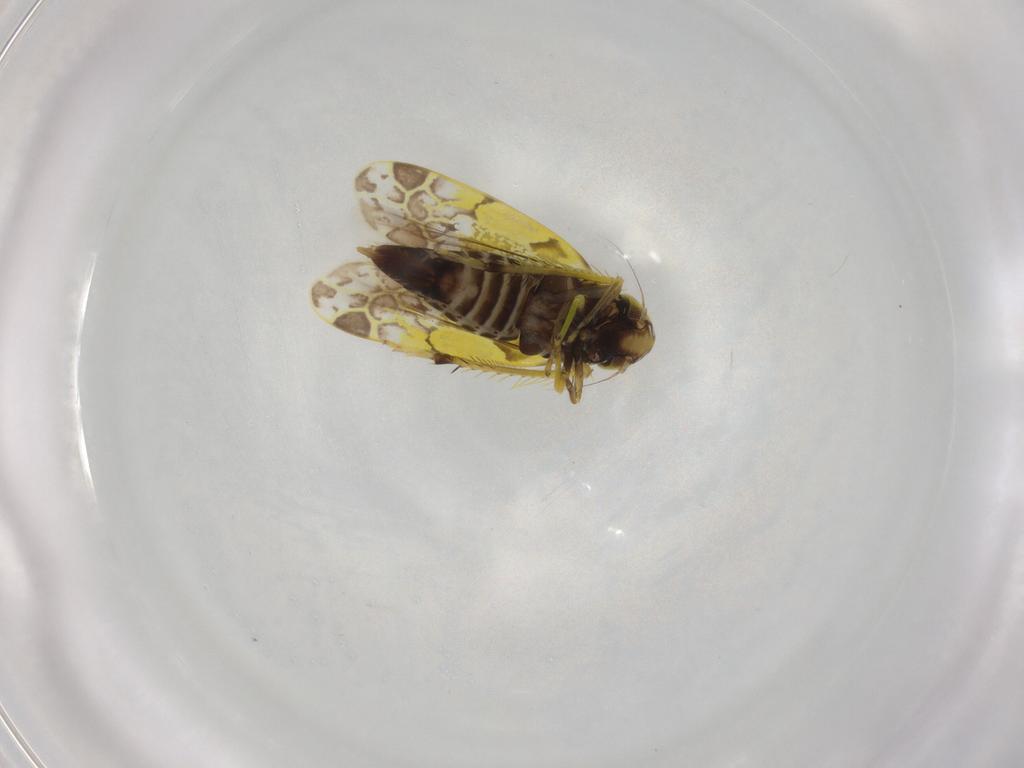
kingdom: Animalia
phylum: Arthropoda
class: Insecta
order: Hemiptera
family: Cicadellidae
